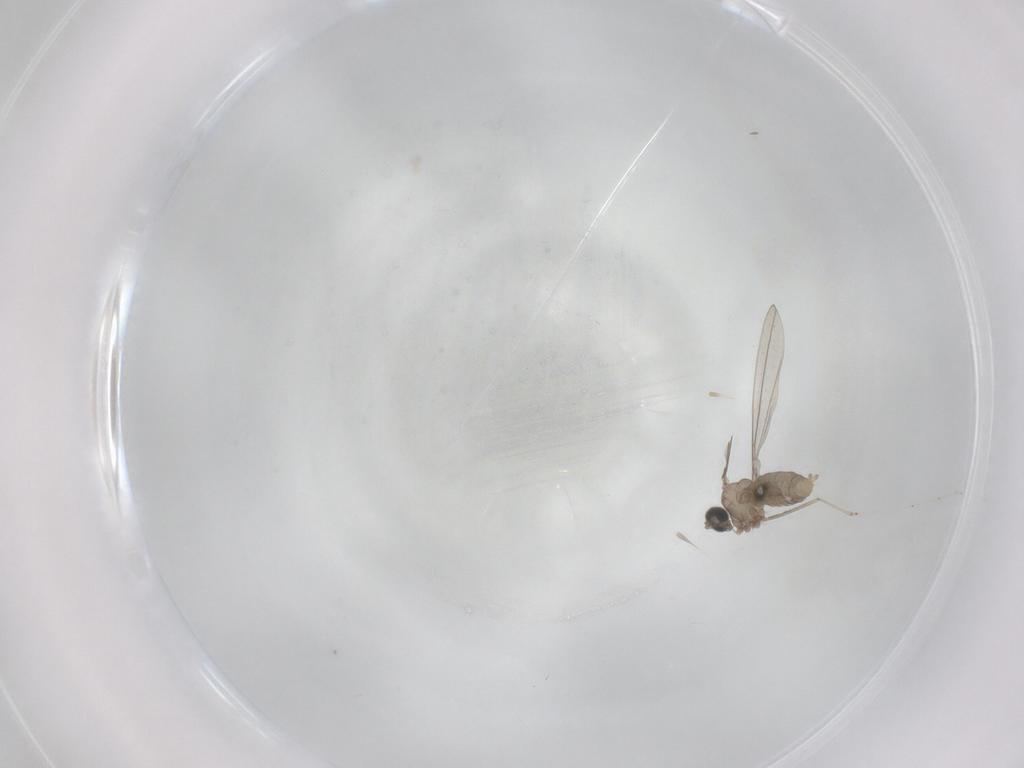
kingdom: Animalia
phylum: Arthropoda
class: Insecta
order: Diptera
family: Cecidomyiidae
